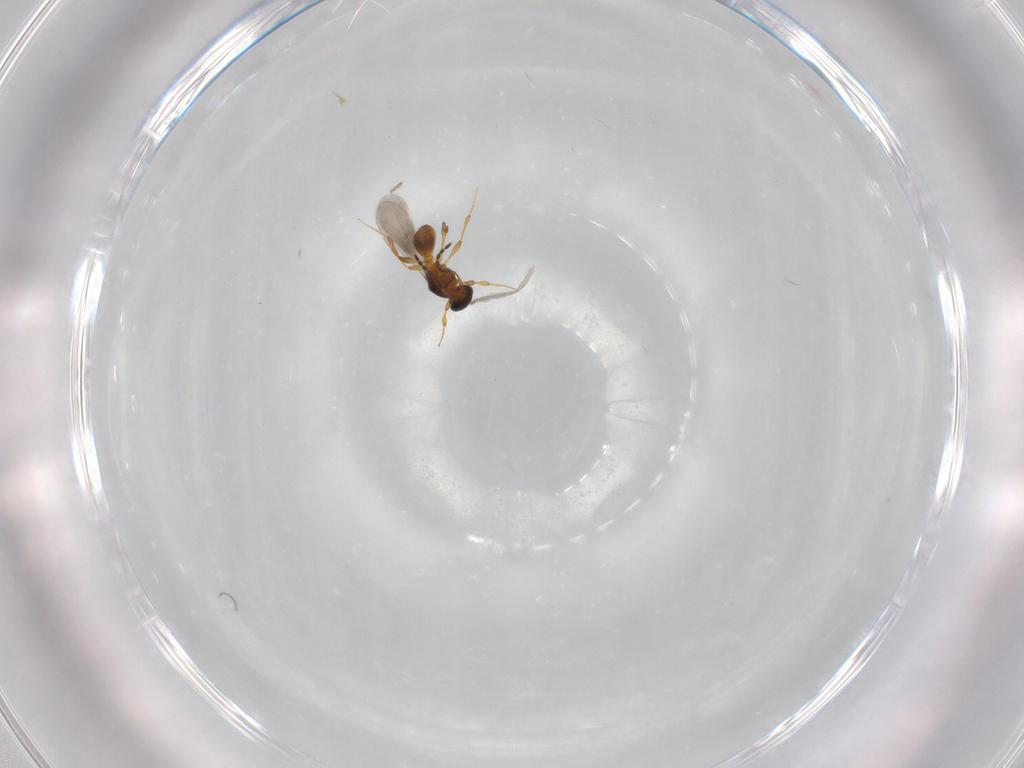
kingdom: Animalia
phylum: Arthropoda
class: Insecta
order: Hymenoptera
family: Platygastridae
